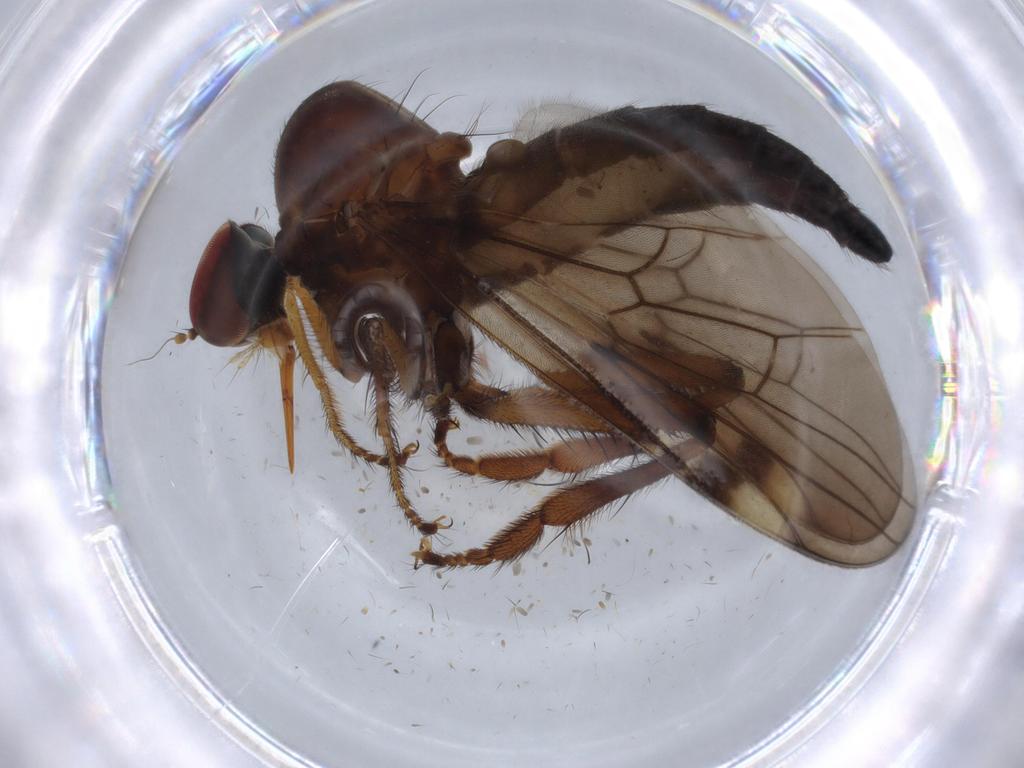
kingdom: Animalia
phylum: Arthropoda
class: Insecta
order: Diptera
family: Hybotidae
